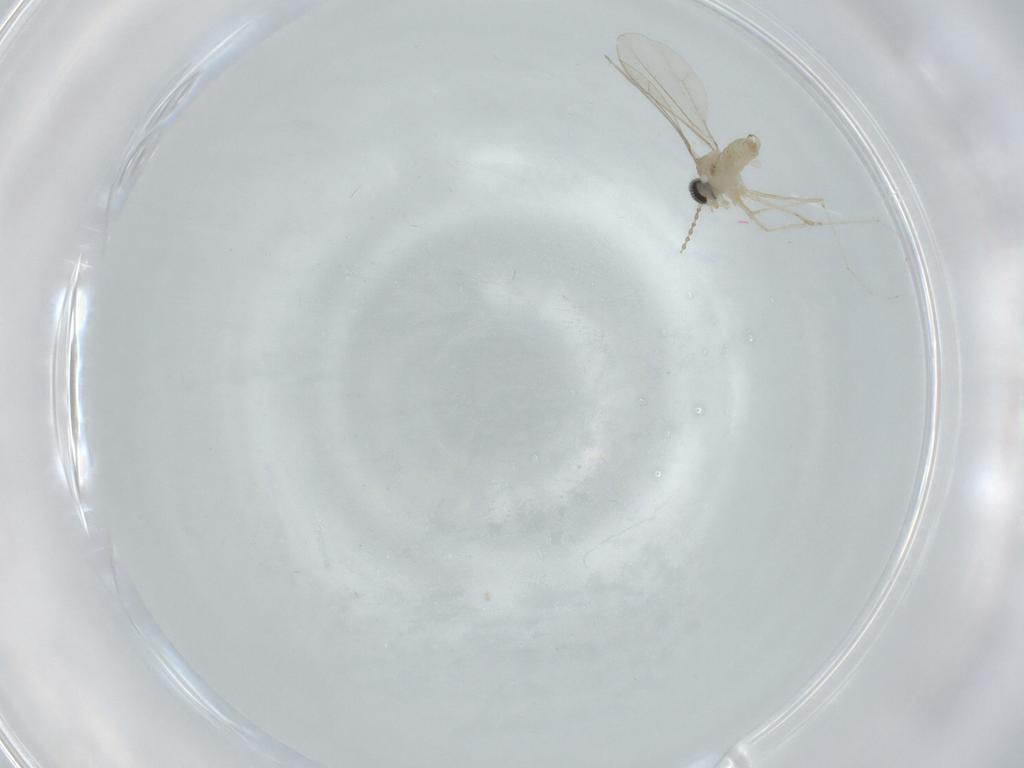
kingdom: Animalia
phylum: Arthropoda
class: Insecta
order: Diptera
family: Cecidomyiidae
